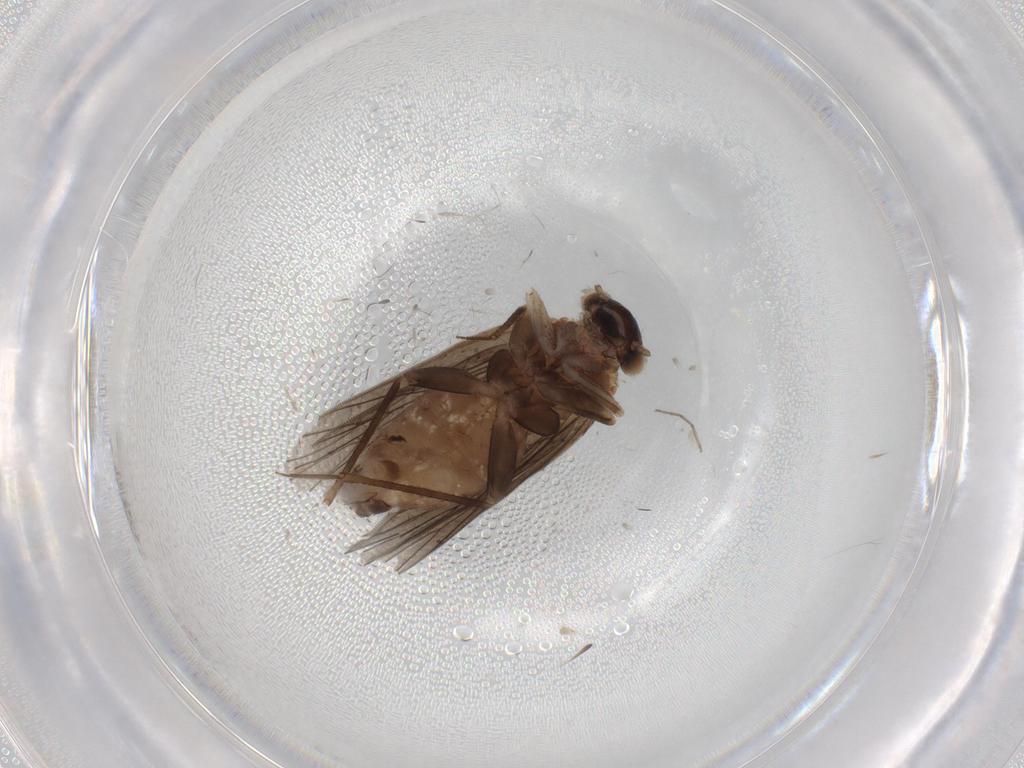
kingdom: Animalia
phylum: Arthropoda
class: Insecta
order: Psocodea
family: Lepidopsocidae
